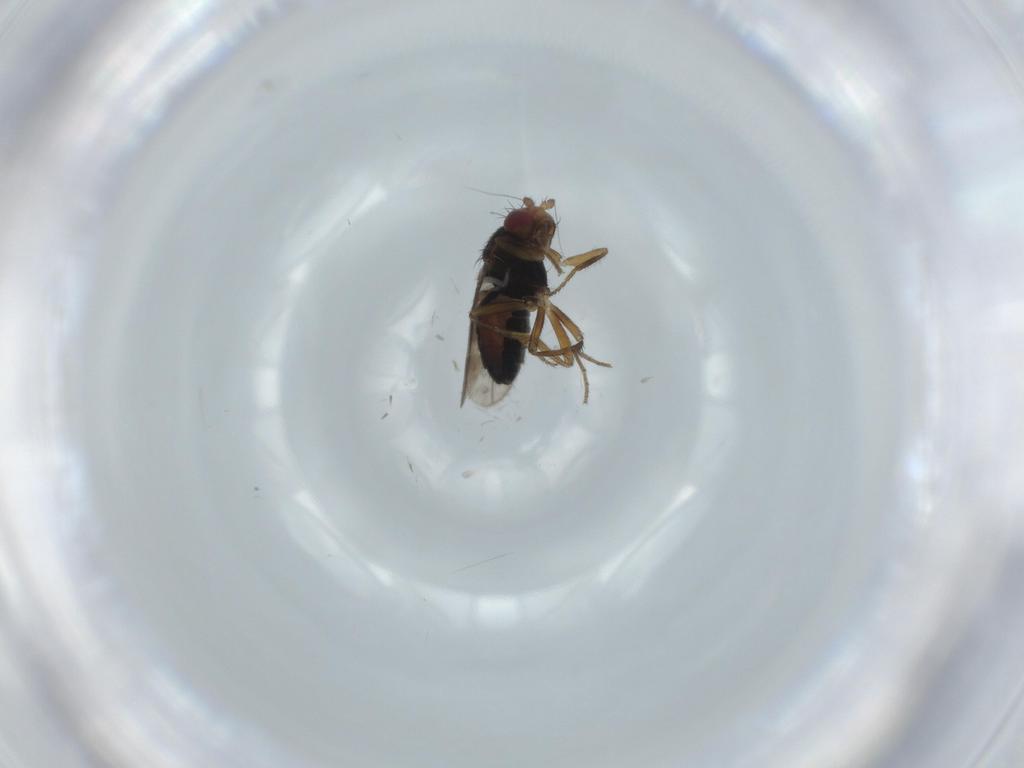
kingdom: Animalia
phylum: Arthropoda
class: Insecta
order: Diptera
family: Sphaeroceridae
